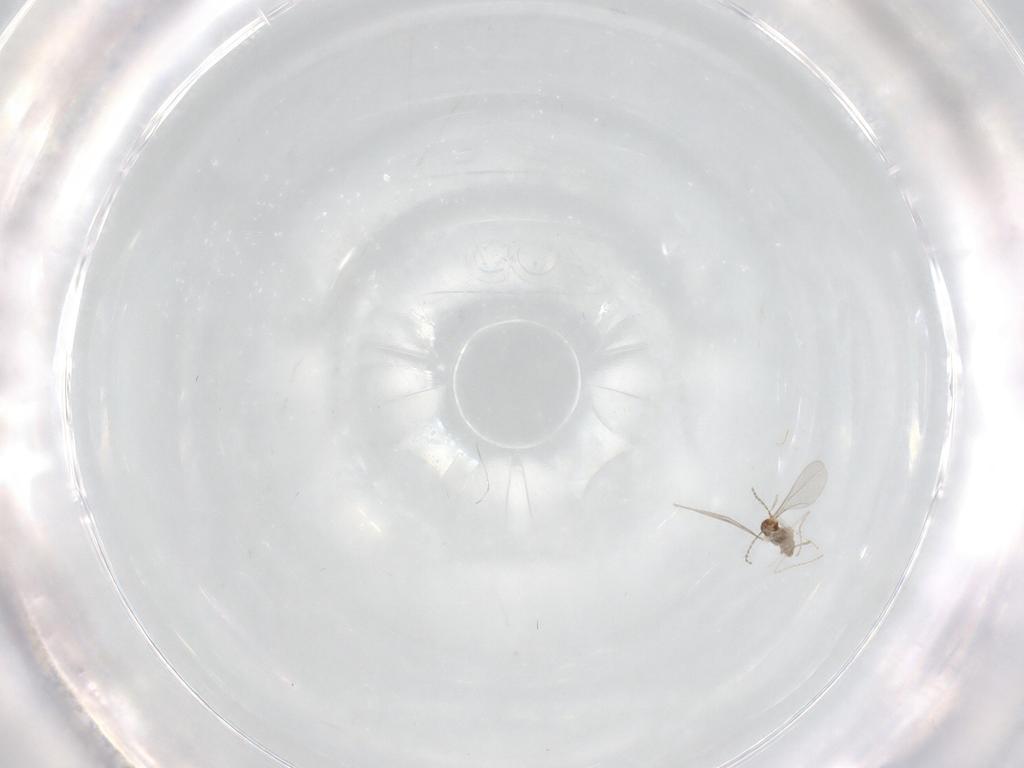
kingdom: Animalia
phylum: Arthropoda
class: Insecta
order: Diptera
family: Cecidomyiidae
